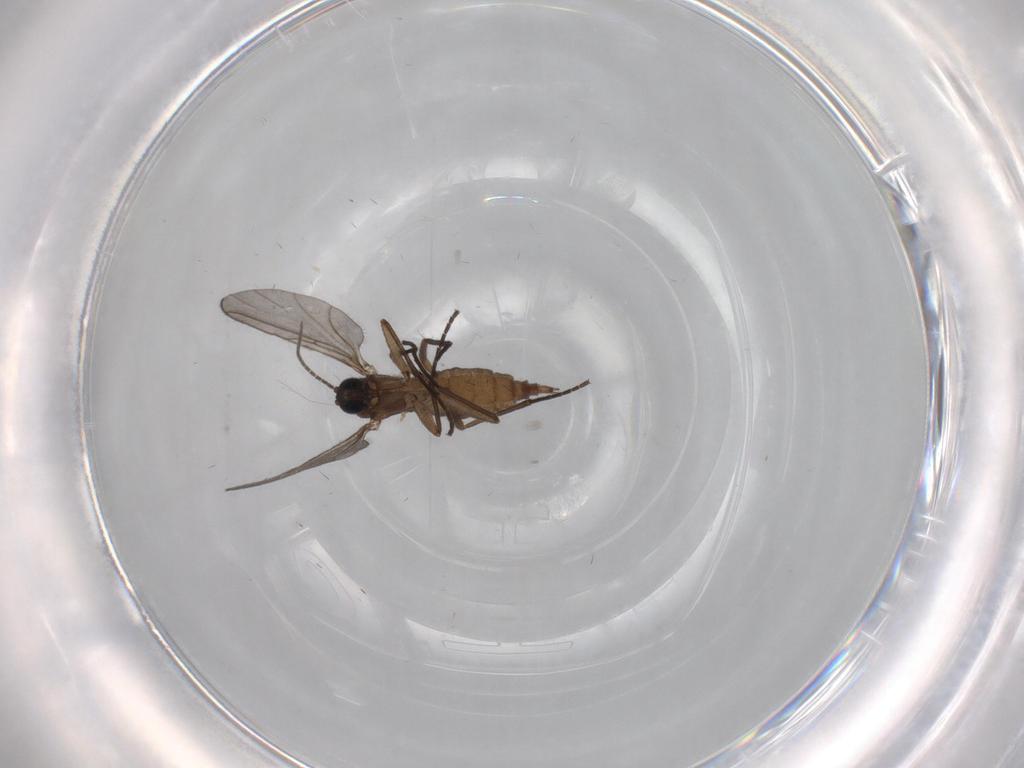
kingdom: Animalia
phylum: Arthropoda
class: Insecta
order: Diptera
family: Sciaridae
